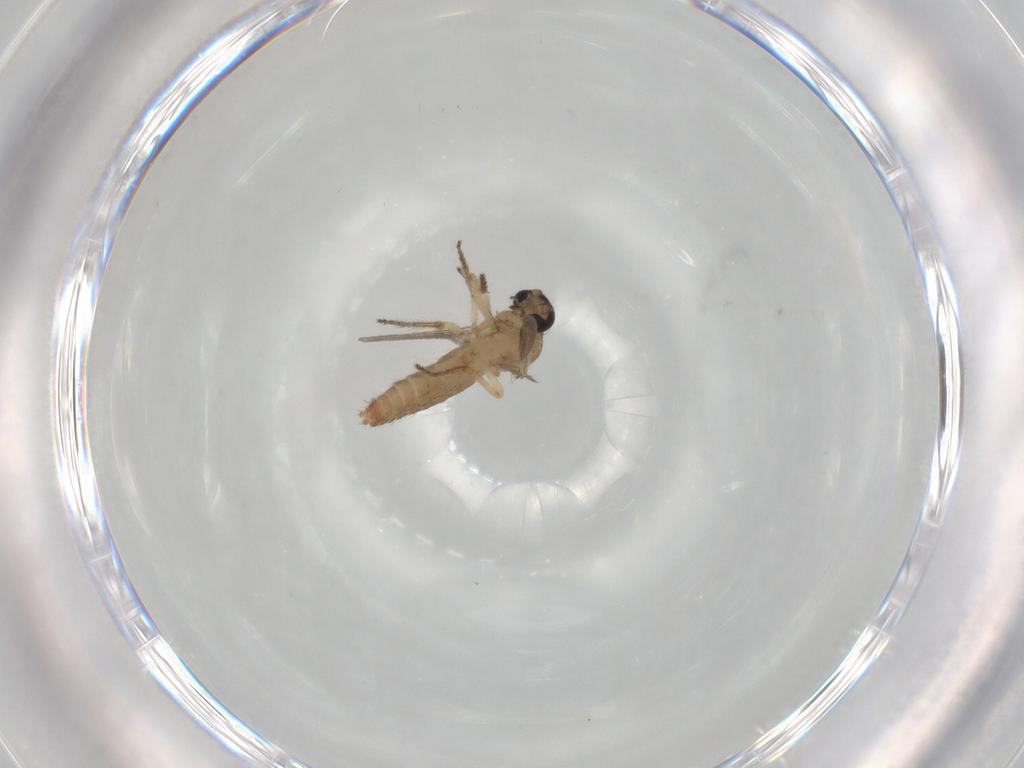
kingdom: Animalia
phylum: Arthropoda
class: Insecta
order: Diptera
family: Ceratopogonidae
